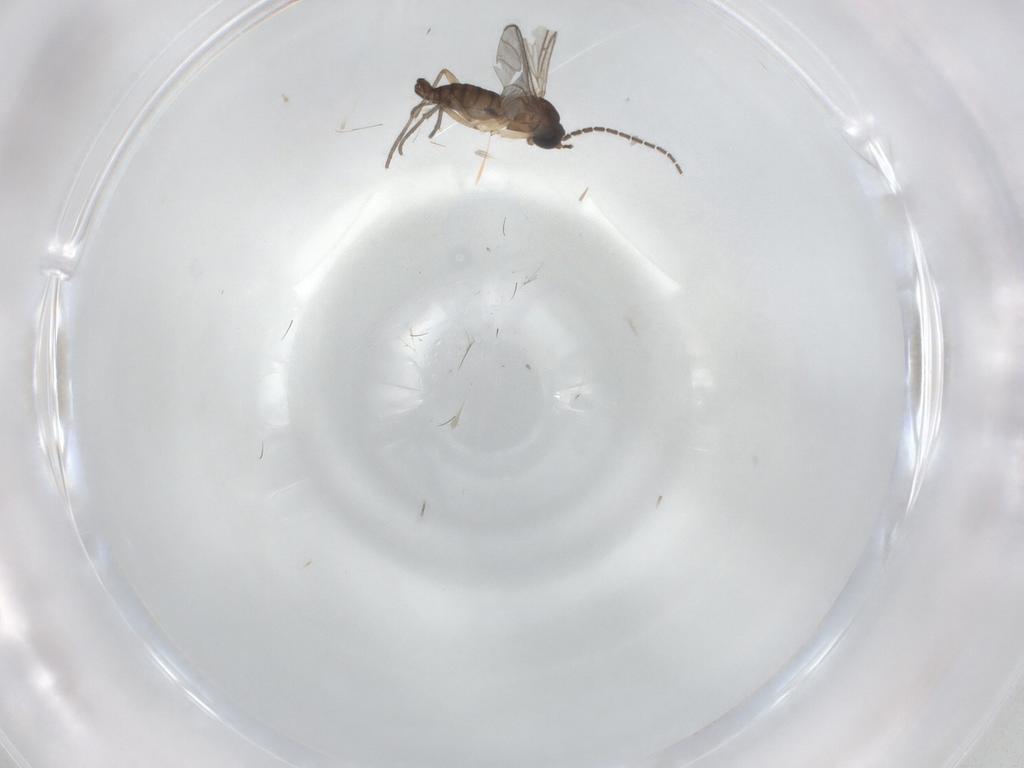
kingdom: Animalia
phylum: Arthropoda
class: Insecta
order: Diptera
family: Sciaridae
